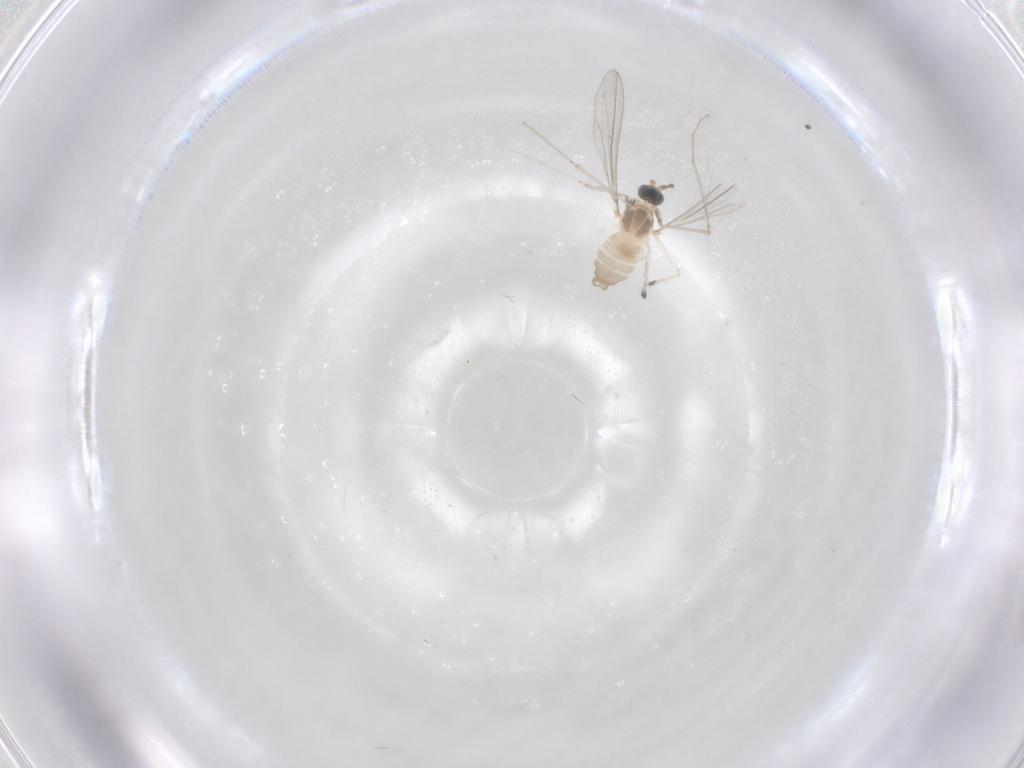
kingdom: Animalia
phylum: Arthropoda
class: Insecta
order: Diptera
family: Cecidomyiidae
